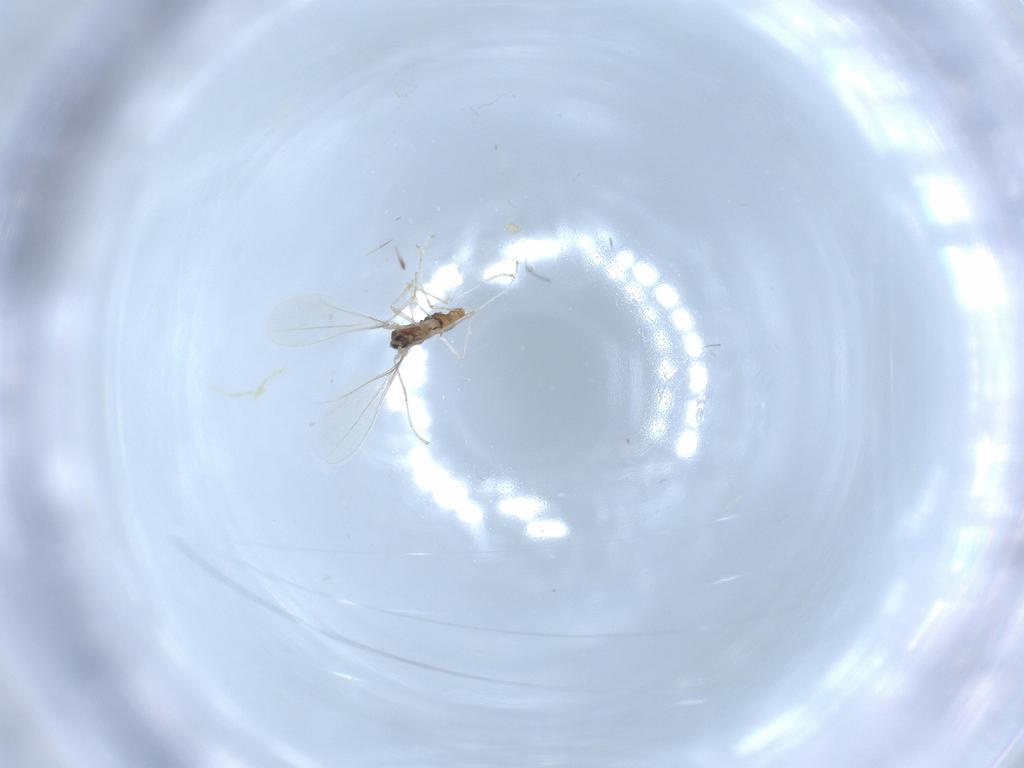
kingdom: Animalia
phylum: Arthropoda
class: Insecta
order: Diptera
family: Cecidomyiidae
